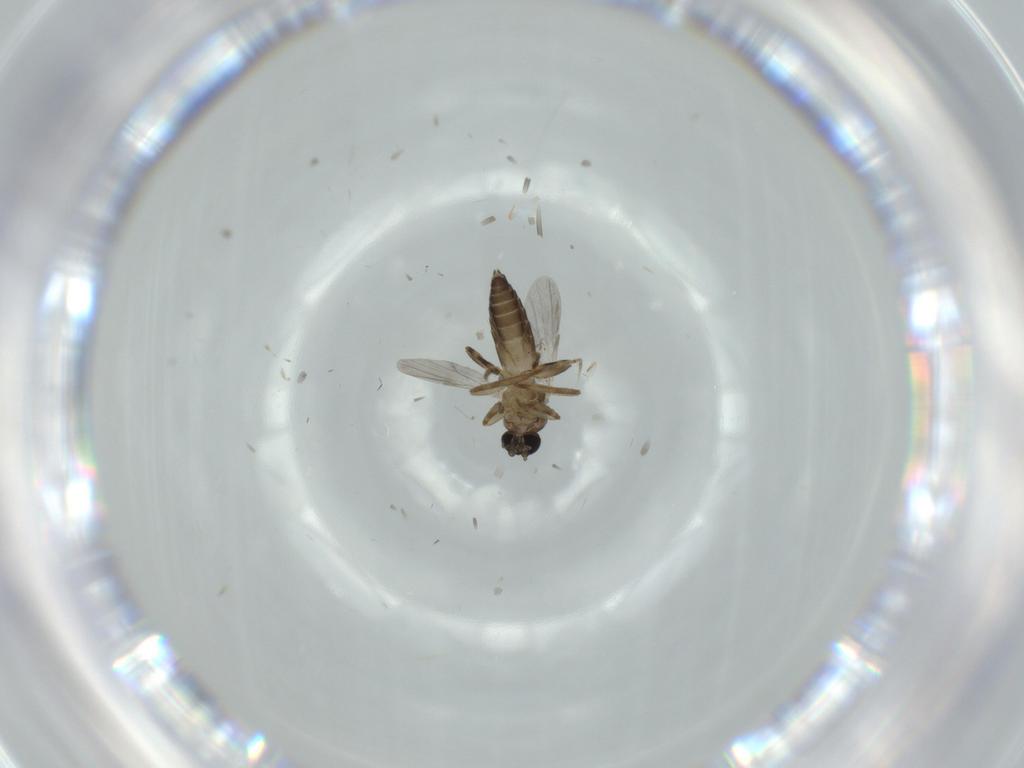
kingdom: Animalia
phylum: Arthropoda
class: Insecta
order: Diptera
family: Ceratopogonidae
